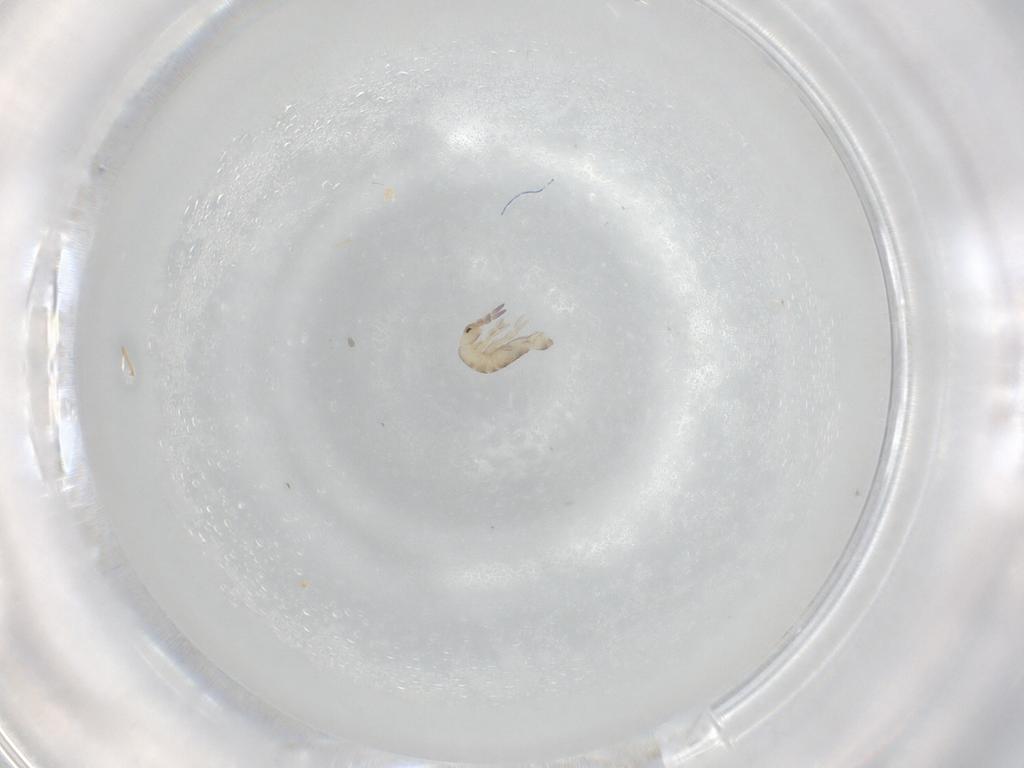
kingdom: Animalia
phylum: Arthropoda
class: Collembola
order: Entomobryomorpha
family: Entomobryidae
